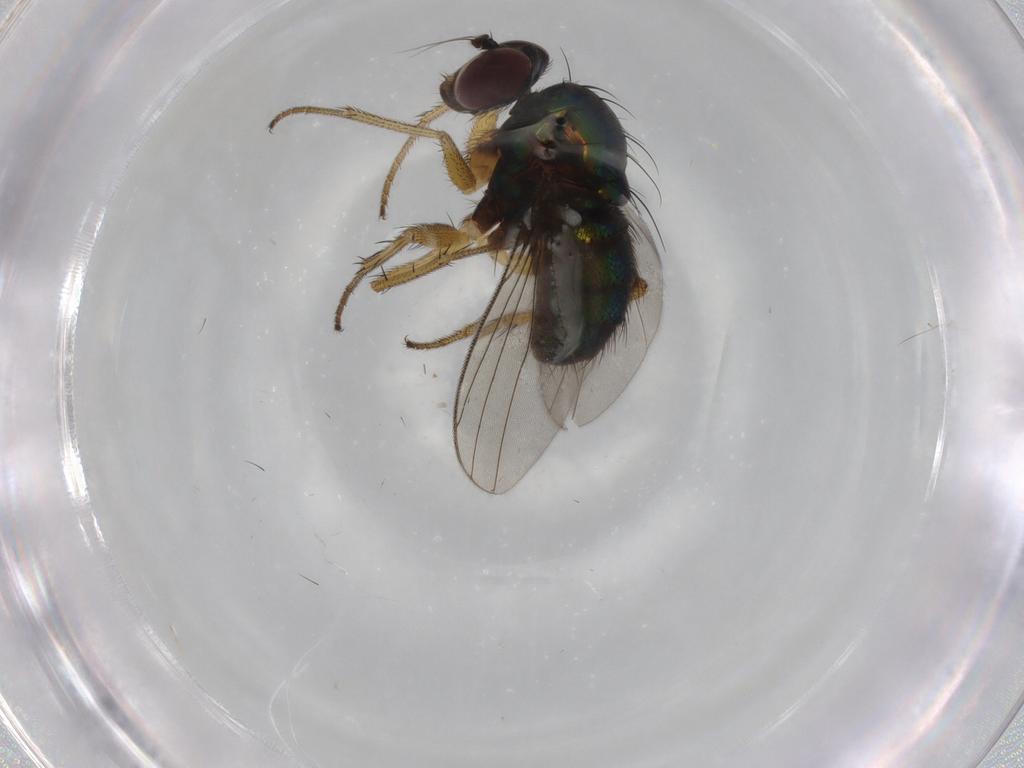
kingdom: Animalia
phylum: Arthropoda
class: Insecta
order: Diptera
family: Dolichopodidae
